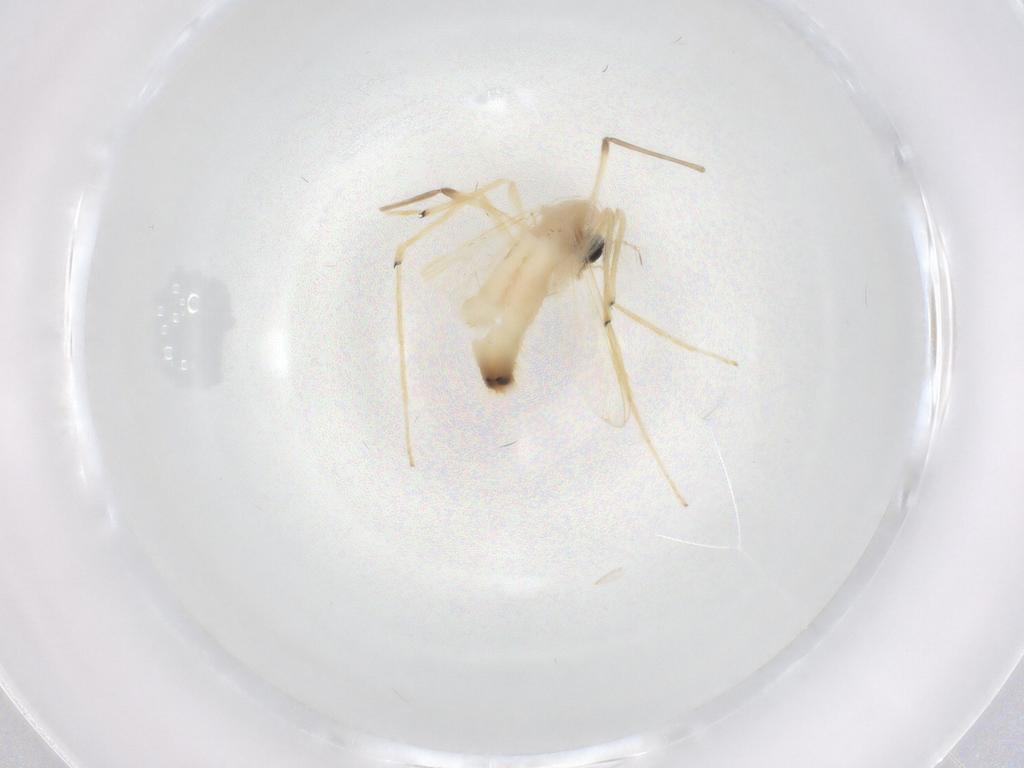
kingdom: Animalia
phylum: Arthropoda
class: Insecta
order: Diptera
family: Chironomidae
